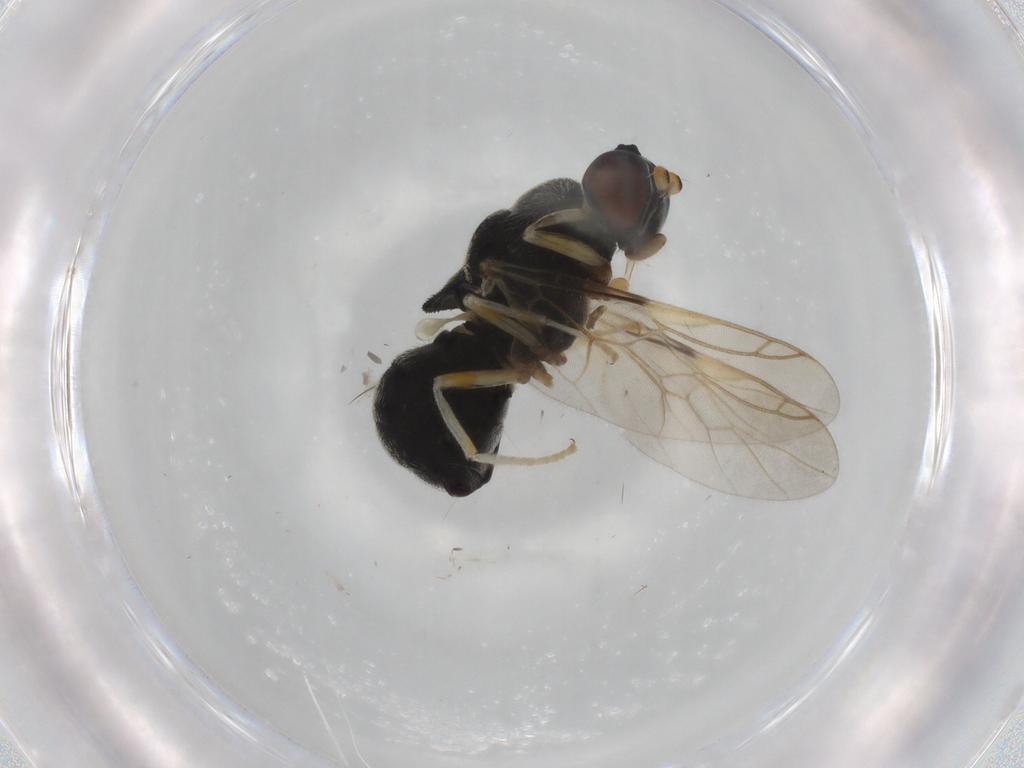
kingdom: Animalia
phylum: Arthropoda
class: Insecta
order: Diptera
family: Stratiomyidae
